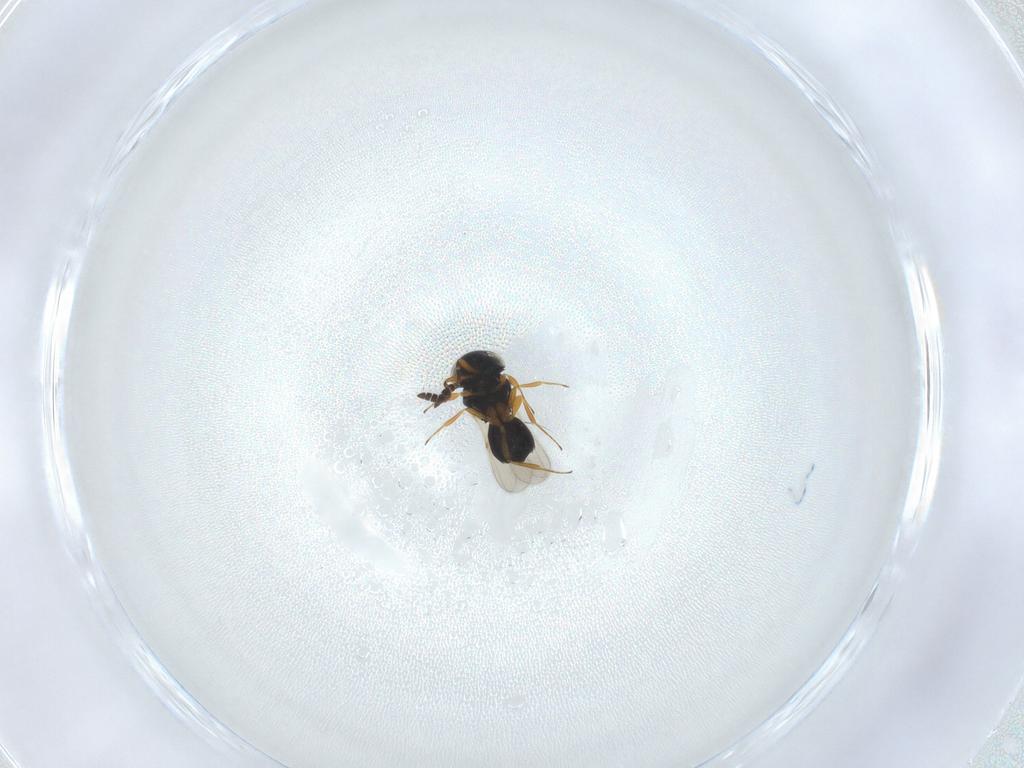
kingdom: Animalia
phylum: Arthropoda
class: Insecta
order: Hymenoptera
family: Scelionidae
